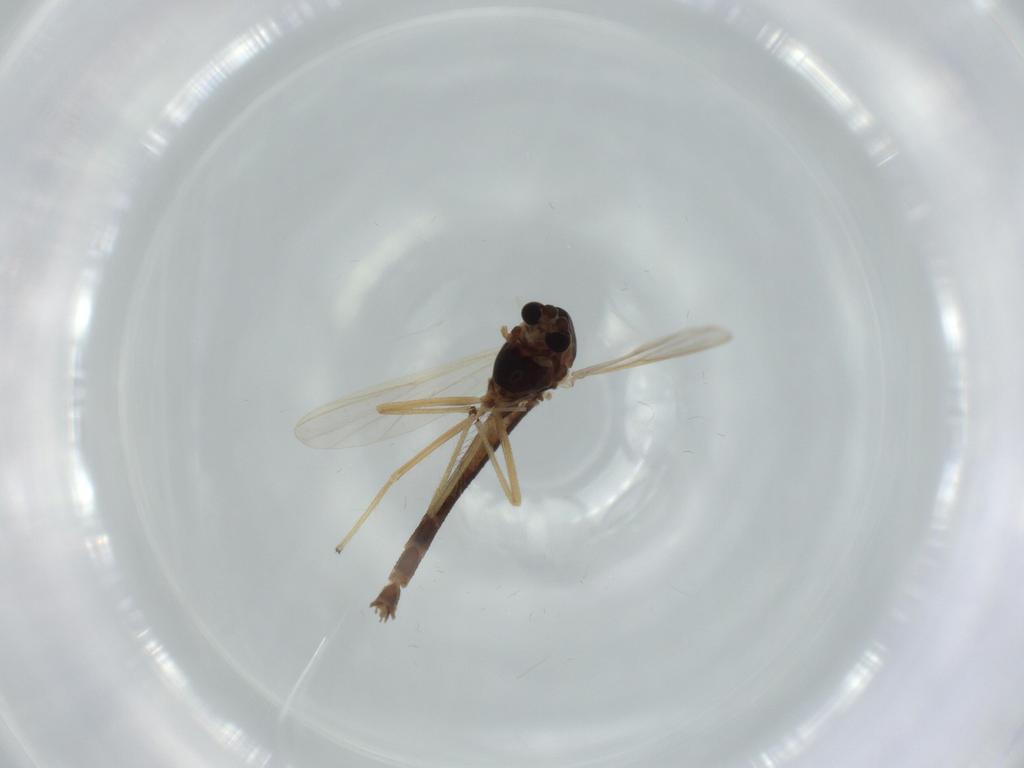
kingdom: Animalia
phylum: Arthropoda
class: Insecta
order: Diptera
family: Chironomidae
